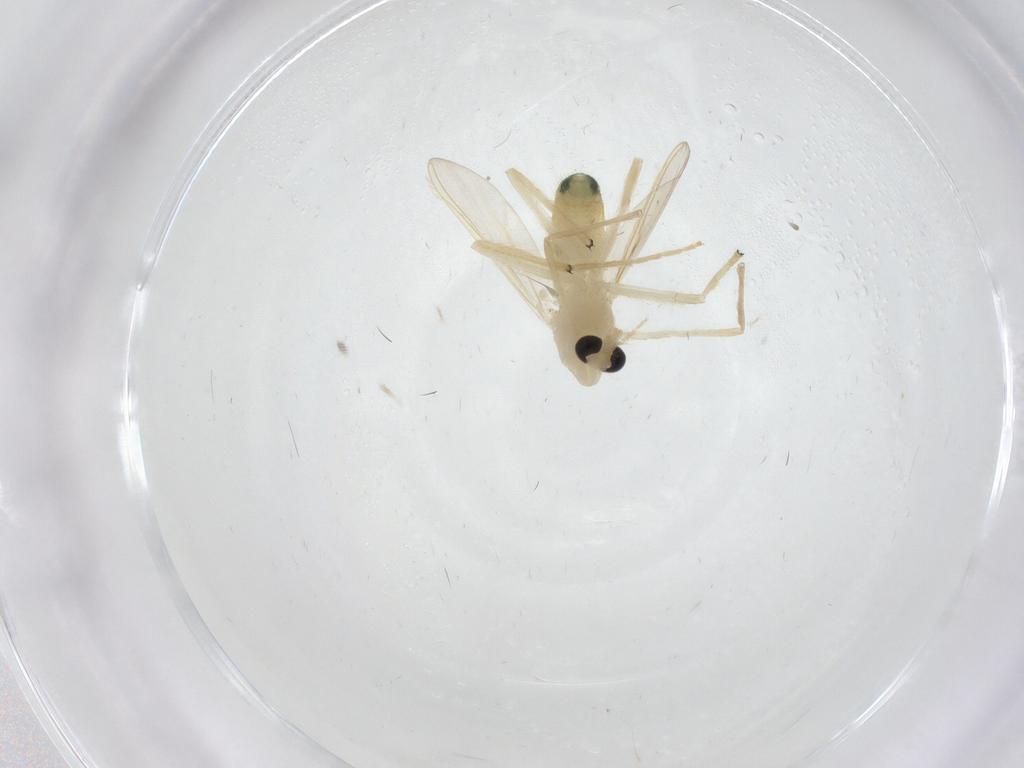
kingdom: Animalia
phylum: Arthropoda
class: Insecta
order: Diptera
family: Chironomidae
